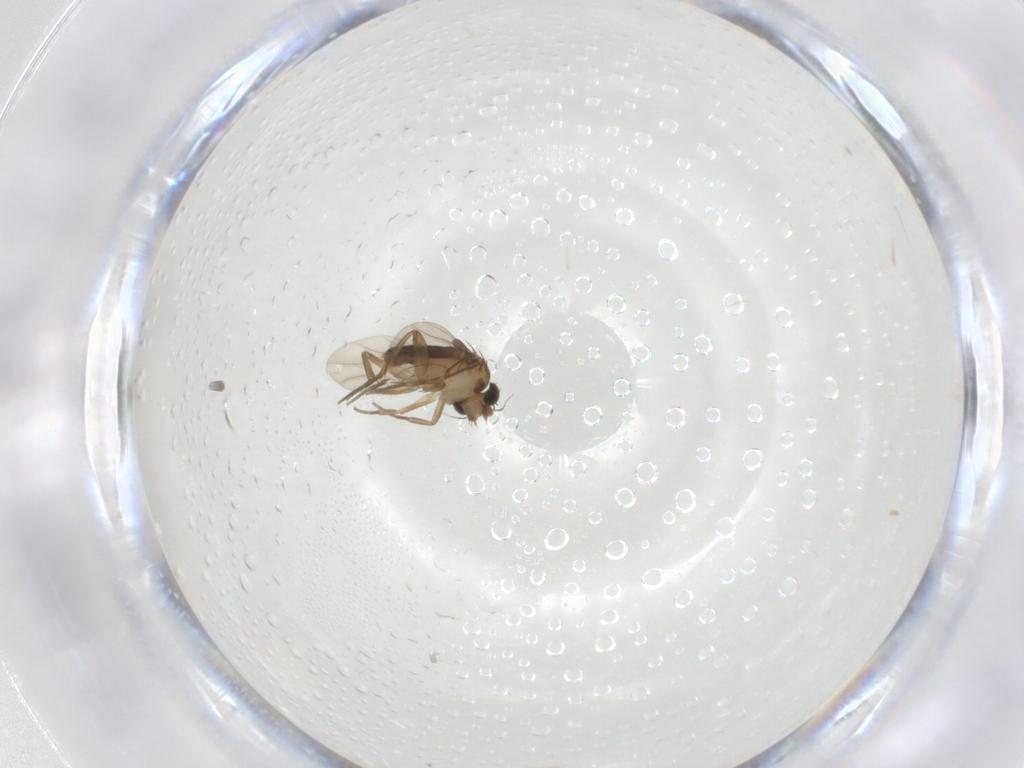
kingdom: Animalia
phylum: Arthropoda
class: Insecta
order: Diptera
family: Phoridae
